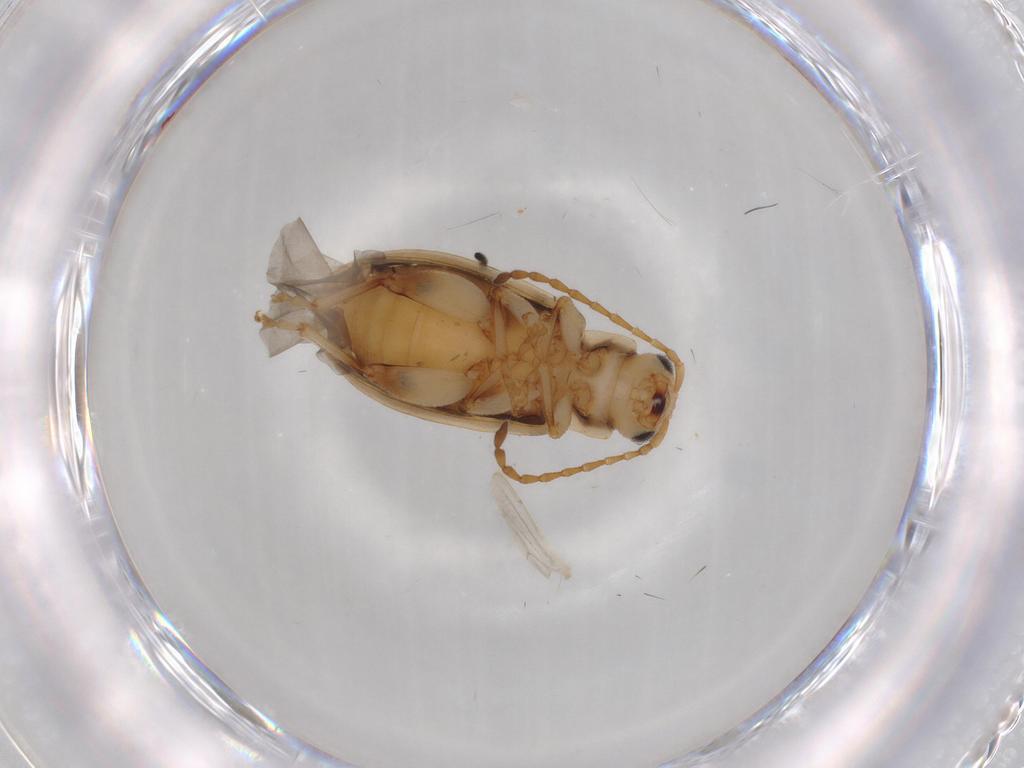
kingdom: Animalia
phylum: Arthropoda
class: Insecta
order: Coleoptera
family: Chrysomelidae
